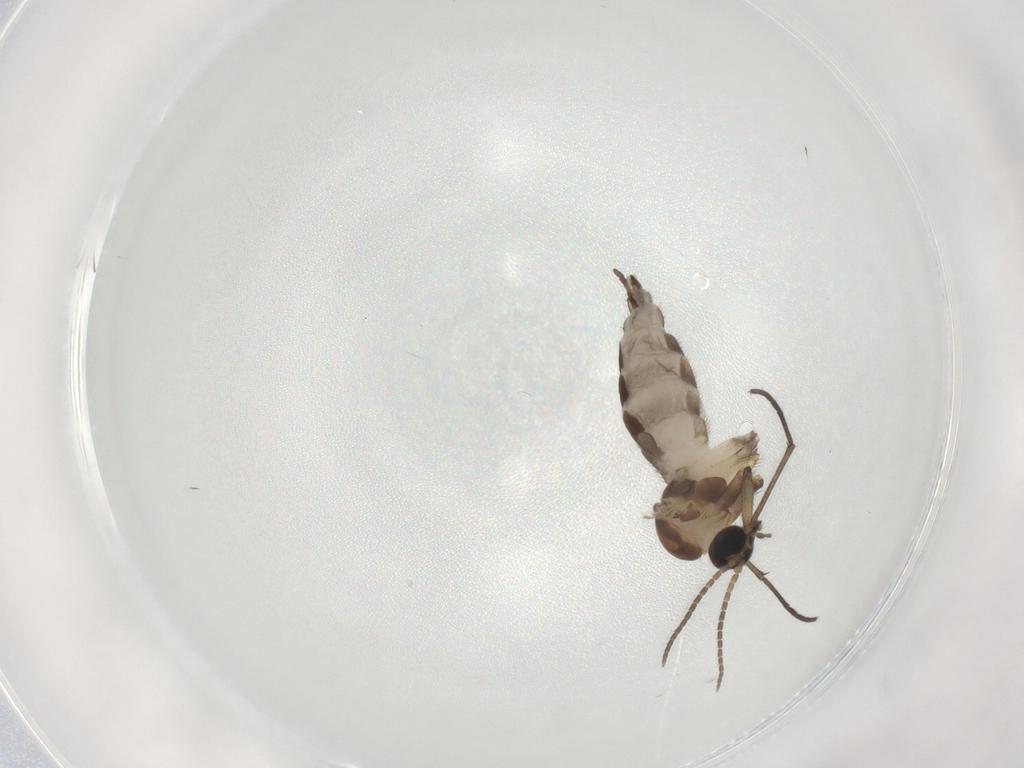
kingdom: Animalia
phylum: Arthropoda
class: Insecta
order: Diptera
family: Sciaridae
